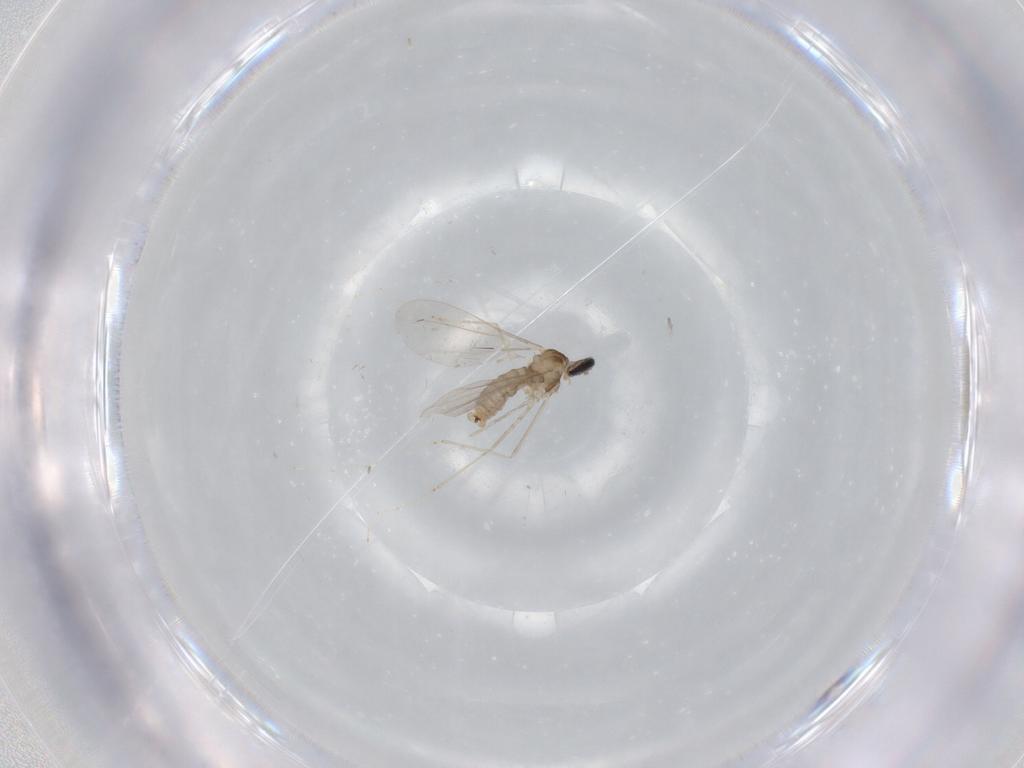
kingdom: Animalia
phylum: Arthropoda
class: Insecta
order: Diptera
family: Cecidomyiidae
